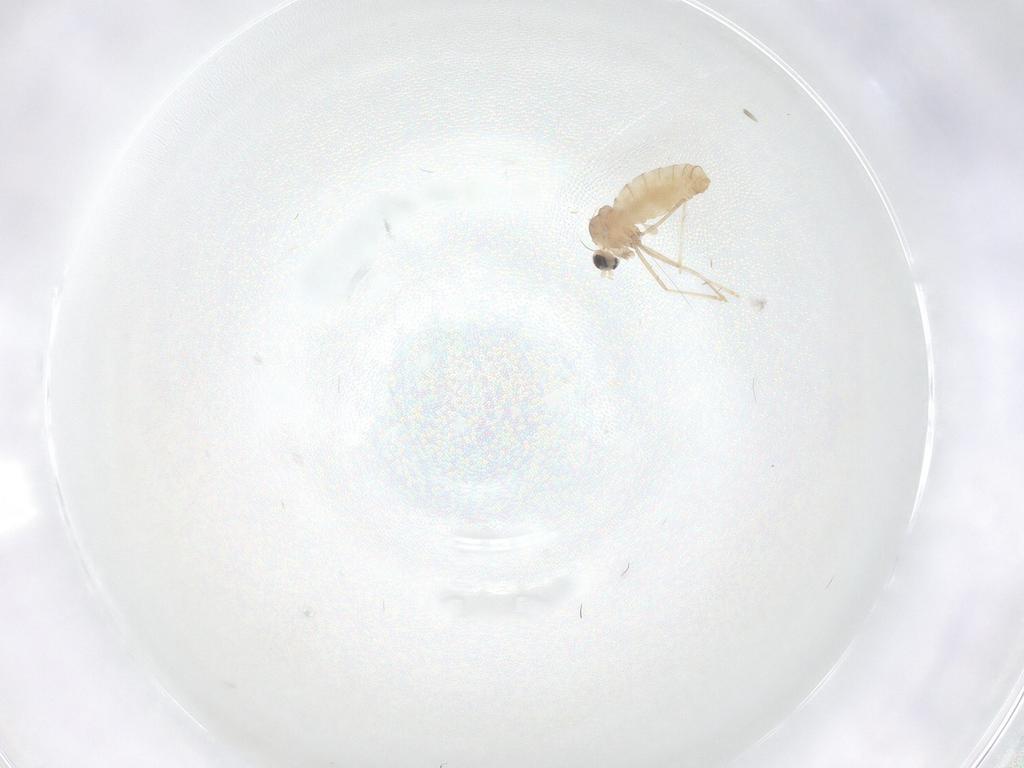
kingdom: Animalia
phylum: Arthropoda
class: Insecta
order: Diptera
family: Cecidomyiidae
